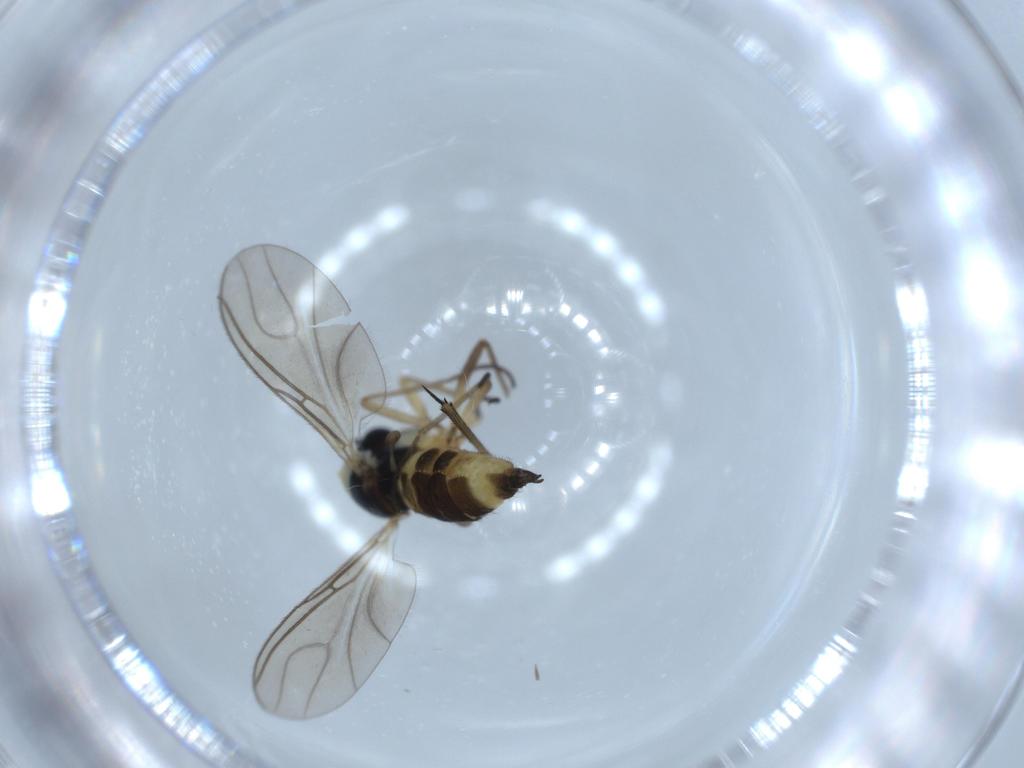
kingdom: Animalia
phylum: Arthropoda
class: Insecta
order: Diptera
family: Sciaridae
